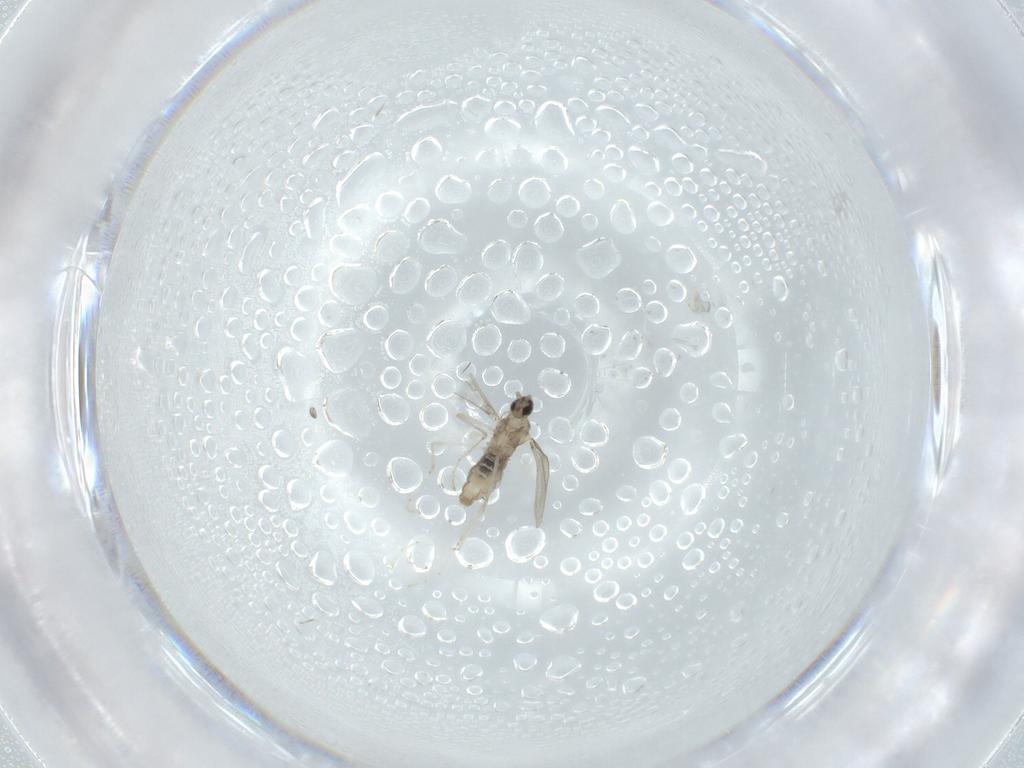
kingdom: Animalia
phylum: Arthropoda
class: Insecta
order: Diptera
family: Cecidomyiidae
